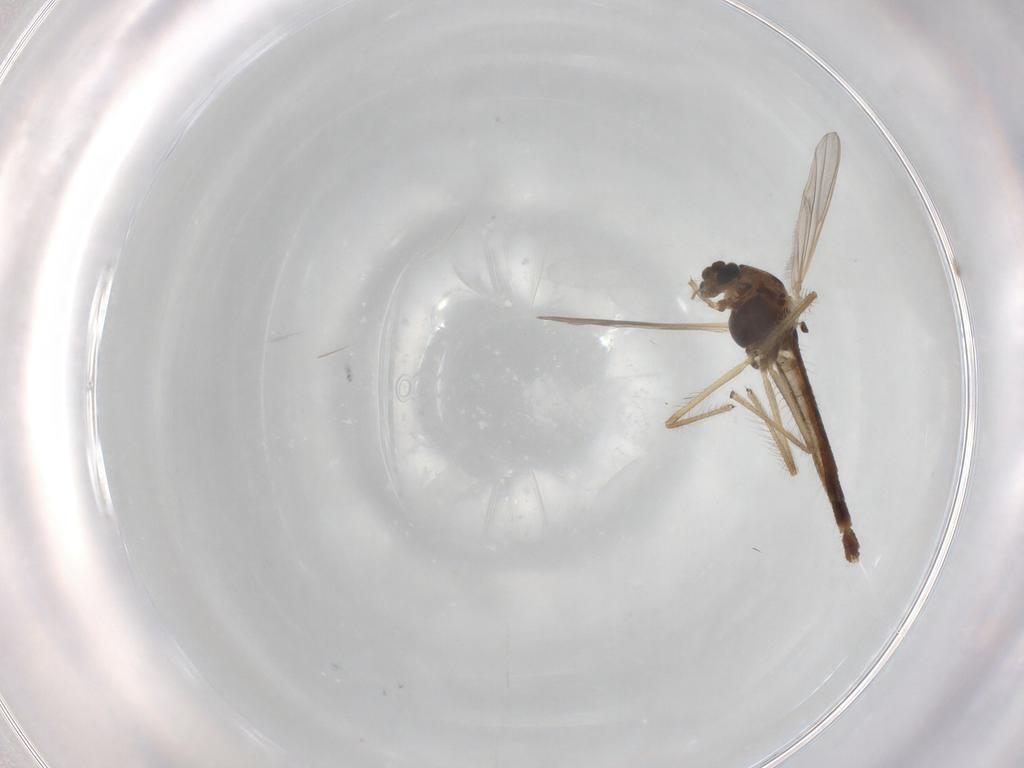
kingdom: Animalia
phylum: Arthropoda
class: Insecta
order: Diptera
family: Chironomidae
